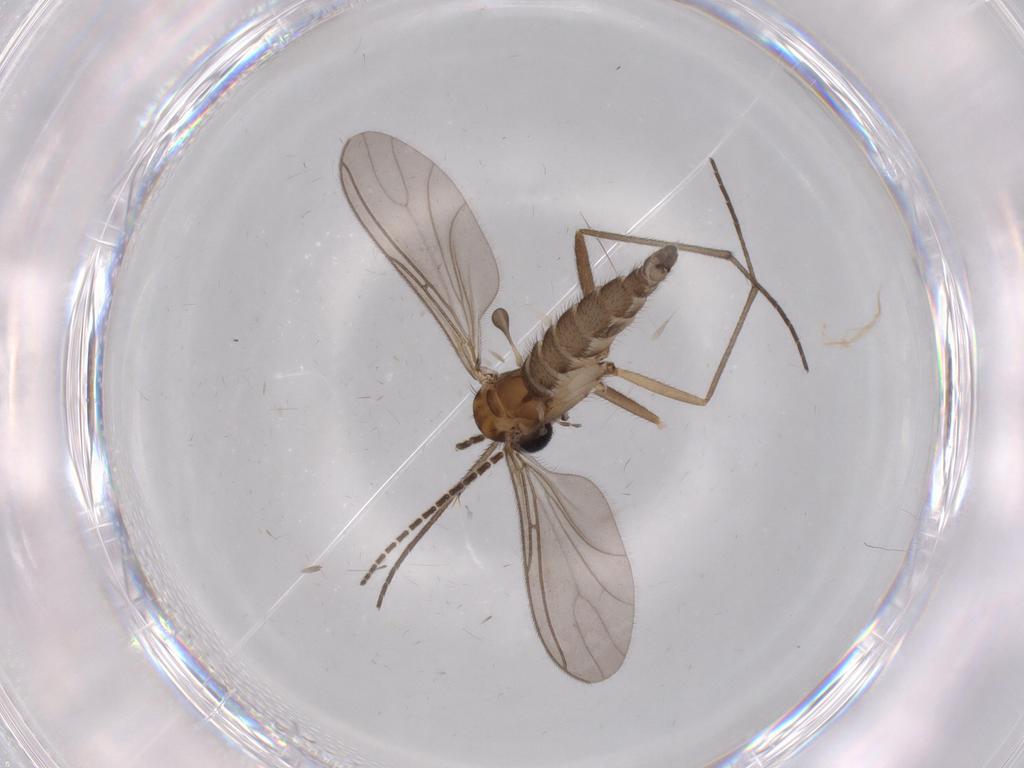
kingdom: Animalia
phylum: Arthropoda
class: Insecta
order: Diptera
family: Sciaridae
